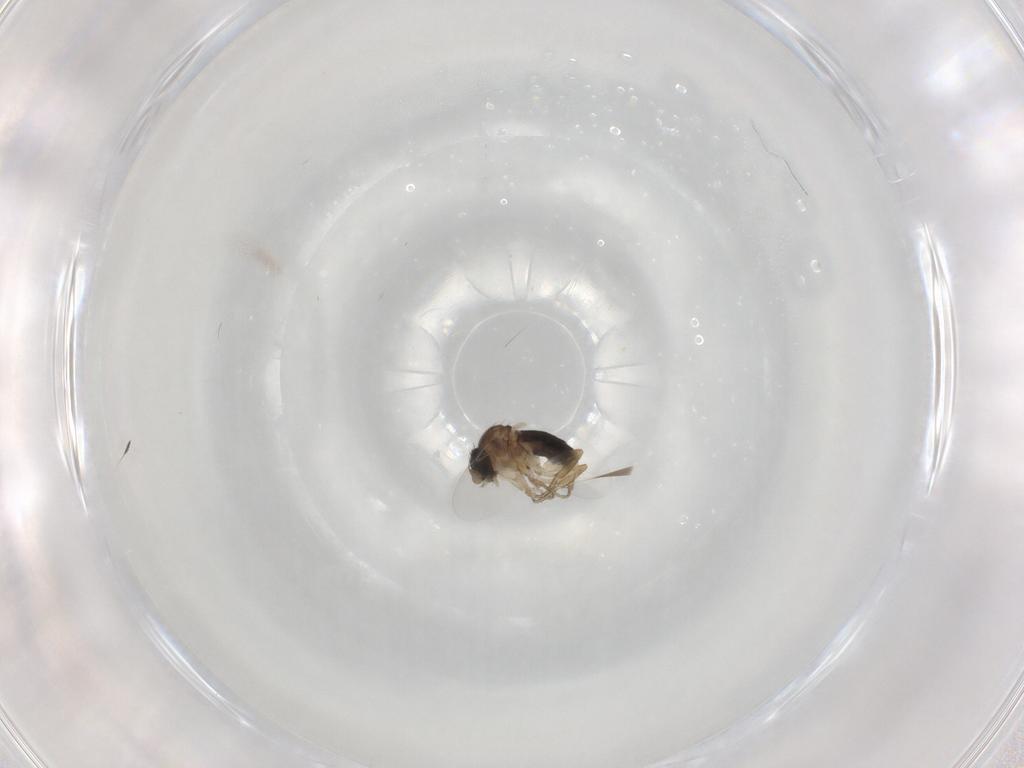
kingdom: Animalia
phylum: Arthropoda
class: Insecta
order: Diptera
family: Phoridae
